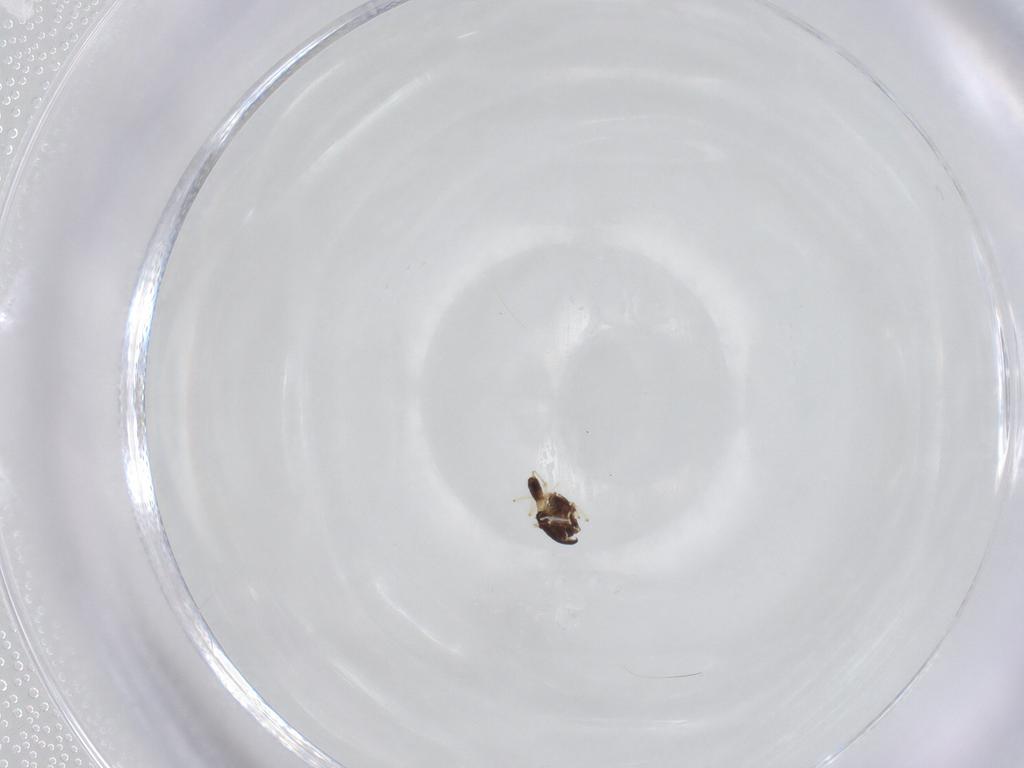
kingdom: Animalia
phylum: Arthropoda
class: Insecta
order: Diptera
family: Chironomidae
